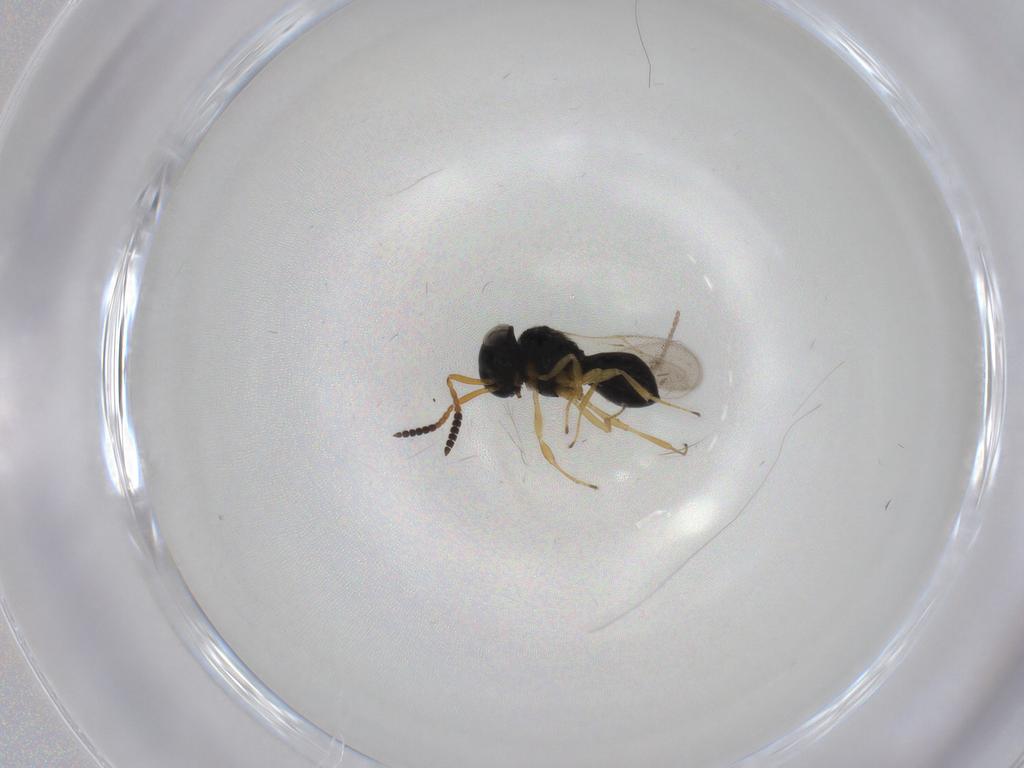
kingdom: Animalia
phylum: Arthropoda
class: Insecta
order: Hymenoptera
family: Scelionidae
